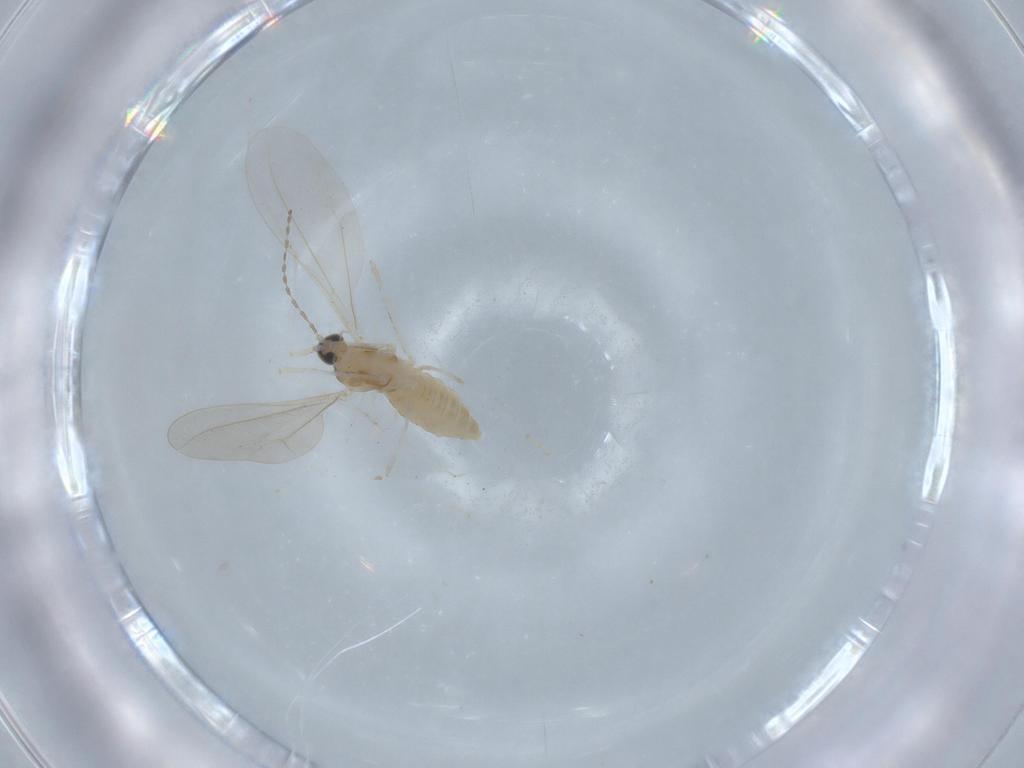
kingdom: Animalia
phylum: Arthropoda
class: Insecta
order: Diptera
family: Cecidomyiidae
